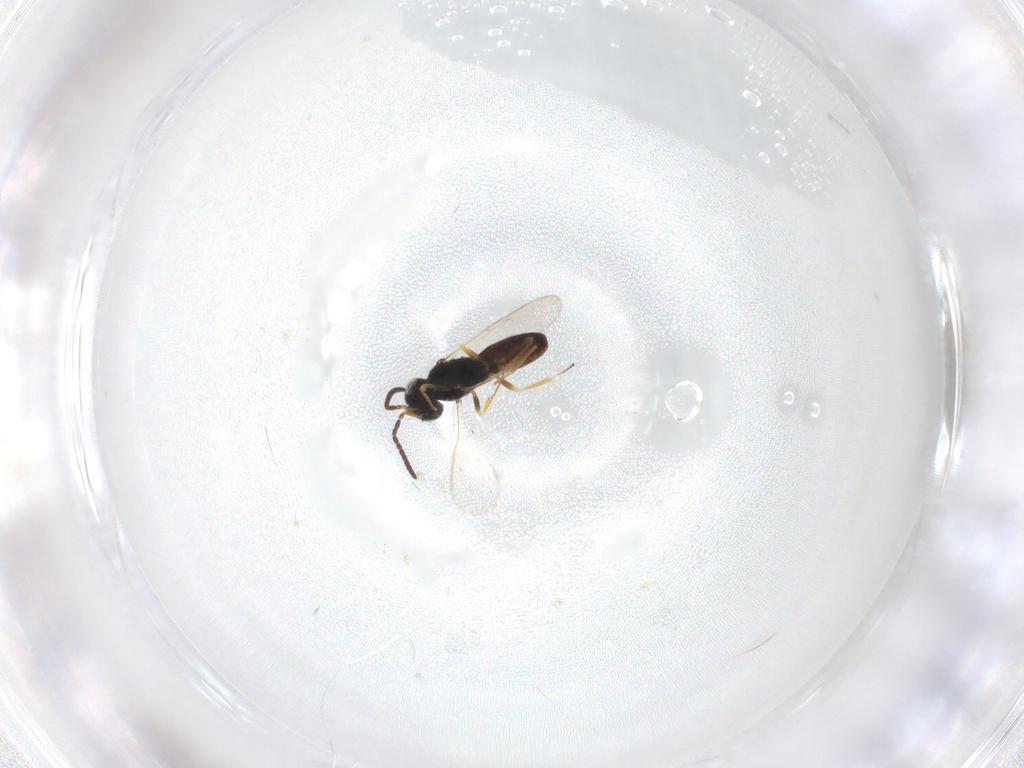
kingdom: Animalia
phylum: Arthropoda
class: Insecta
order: Hymenoptera
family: Scelionidae
